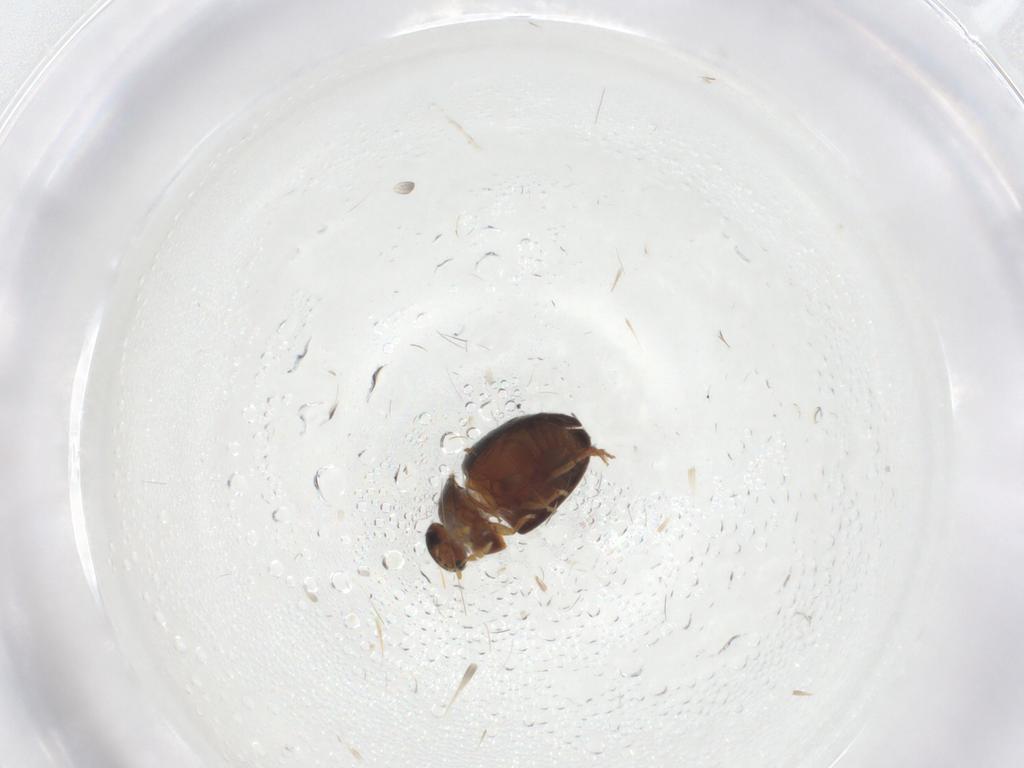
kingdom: Animalia
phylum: Arthropoda
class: Insecta
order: Coleoptera
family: Phalacridae
